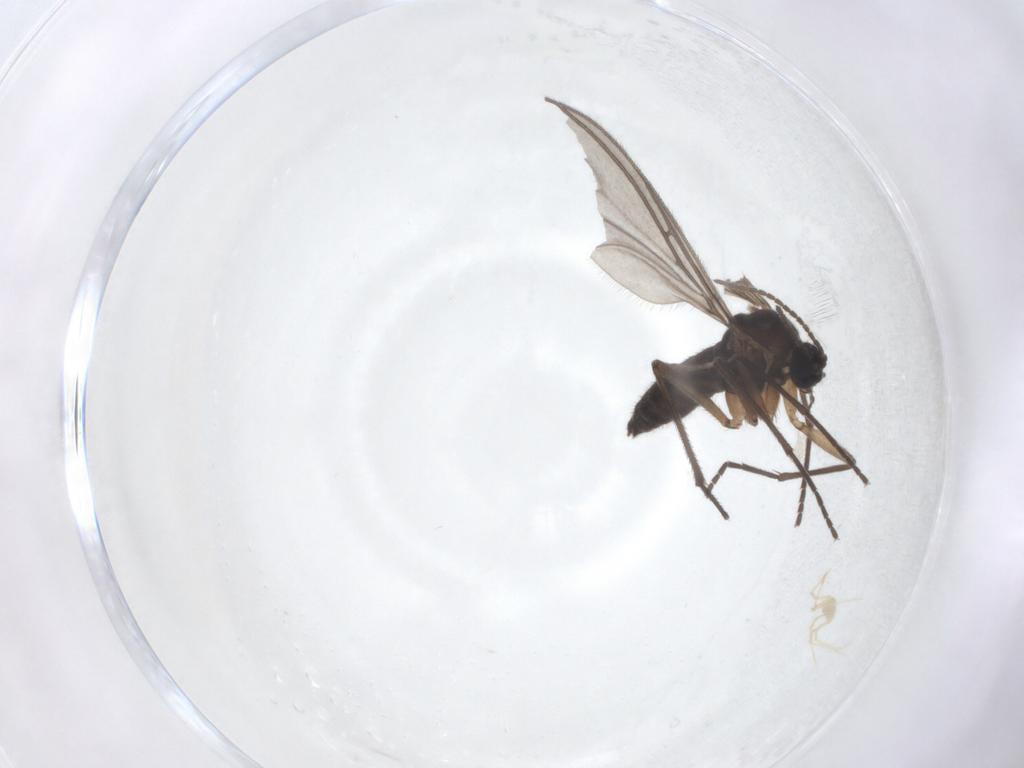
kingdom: Animalia
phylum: Arthropoda
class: Insecta
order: Diptera
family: Sciaridae
